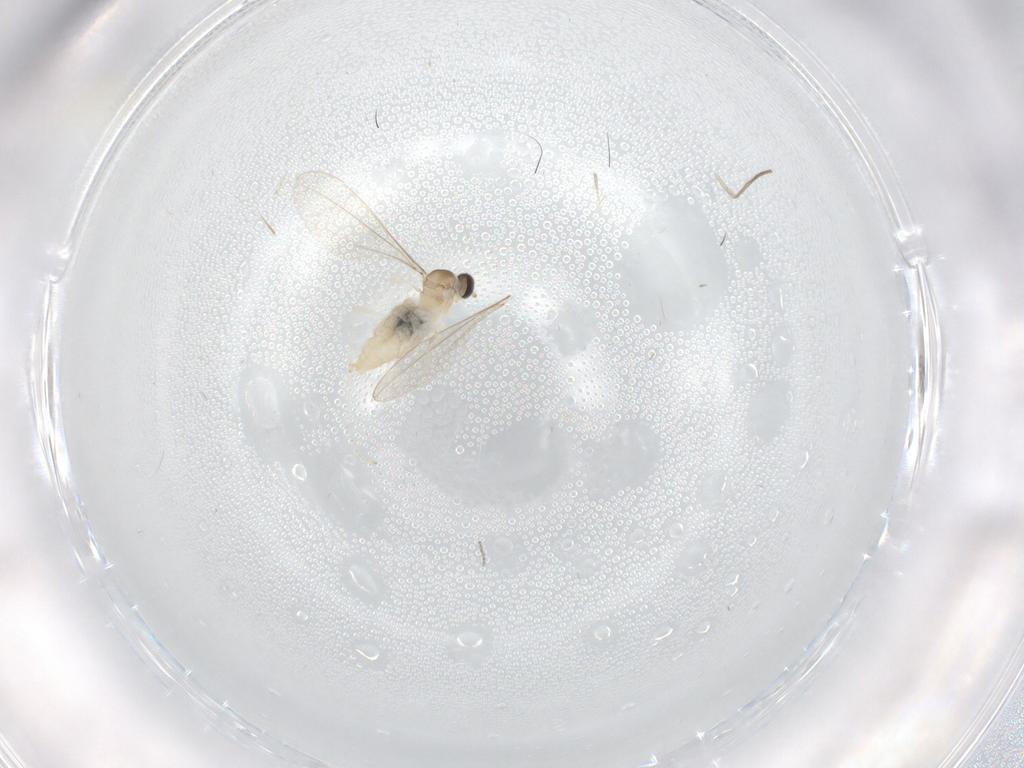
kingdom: Animalia
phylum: Arthropoda
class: Insecta
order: Diptera
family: Cecidomyiidae
